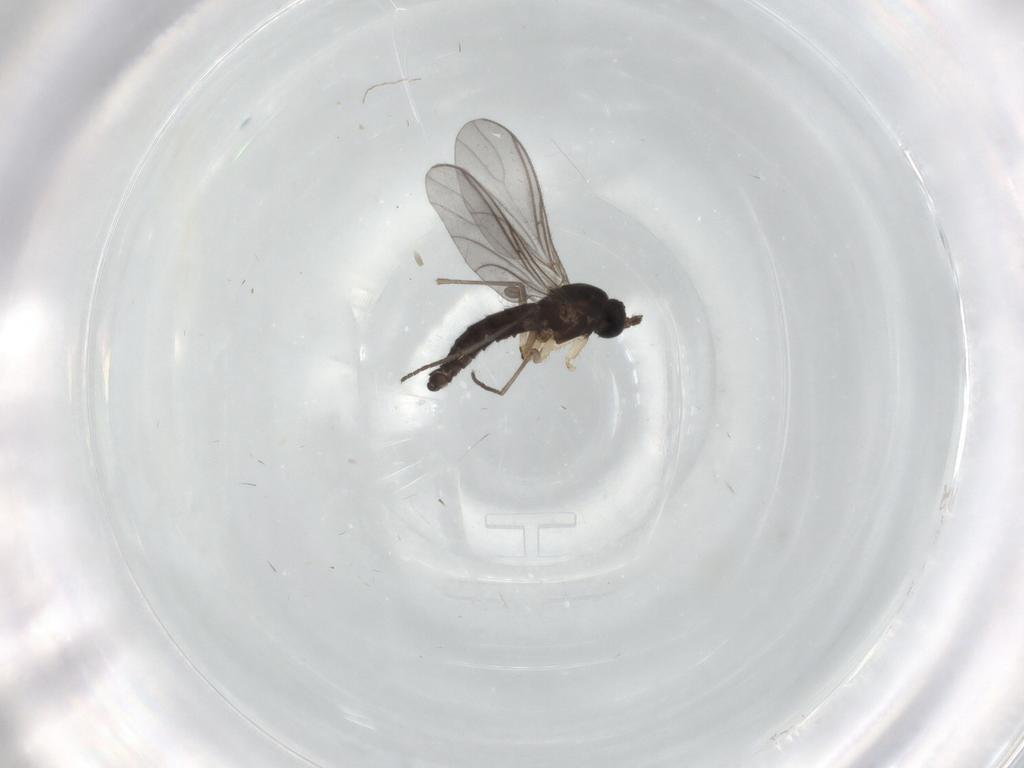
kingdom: Animalia
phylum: Arthropoda
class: Insecta
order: Diptera
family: Sciaridae
